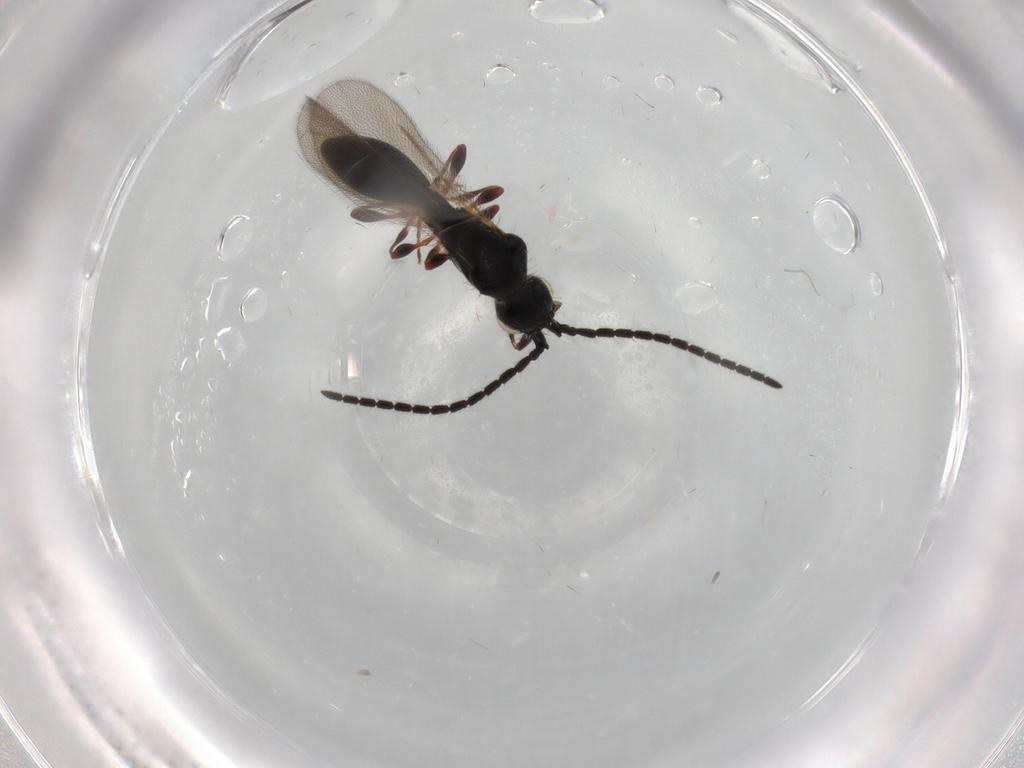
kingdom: Animalia
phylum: Arthropoda
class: Insecta
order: Hymenoptera
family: Diapriidae
